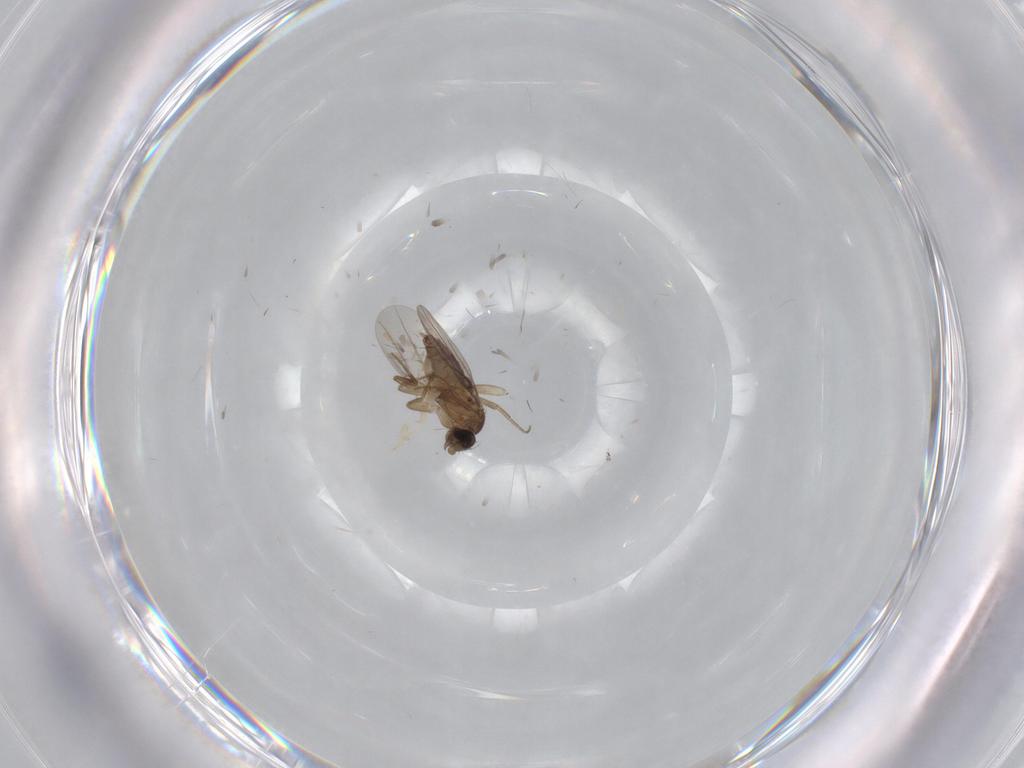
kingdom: Animalia
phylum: Arthropoda
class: Insecta
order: Diptera
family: Phoridae
